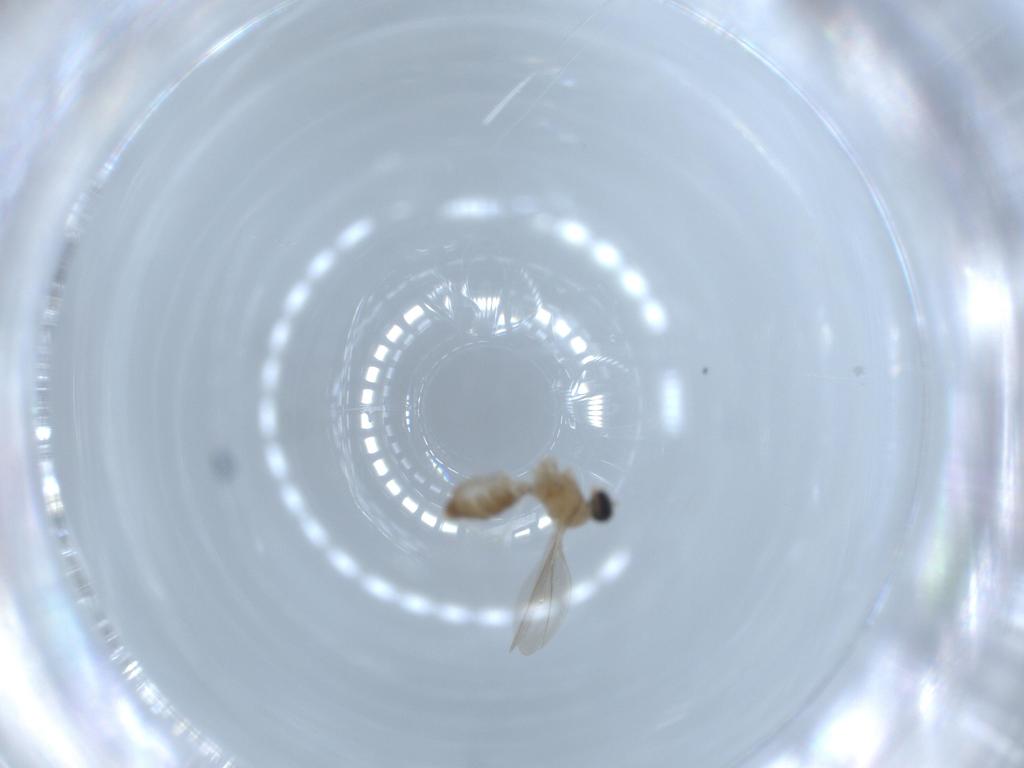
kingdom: Animalia
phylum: Arthropoda
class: Insecta
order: Diptera
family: Cecidomyiidae
